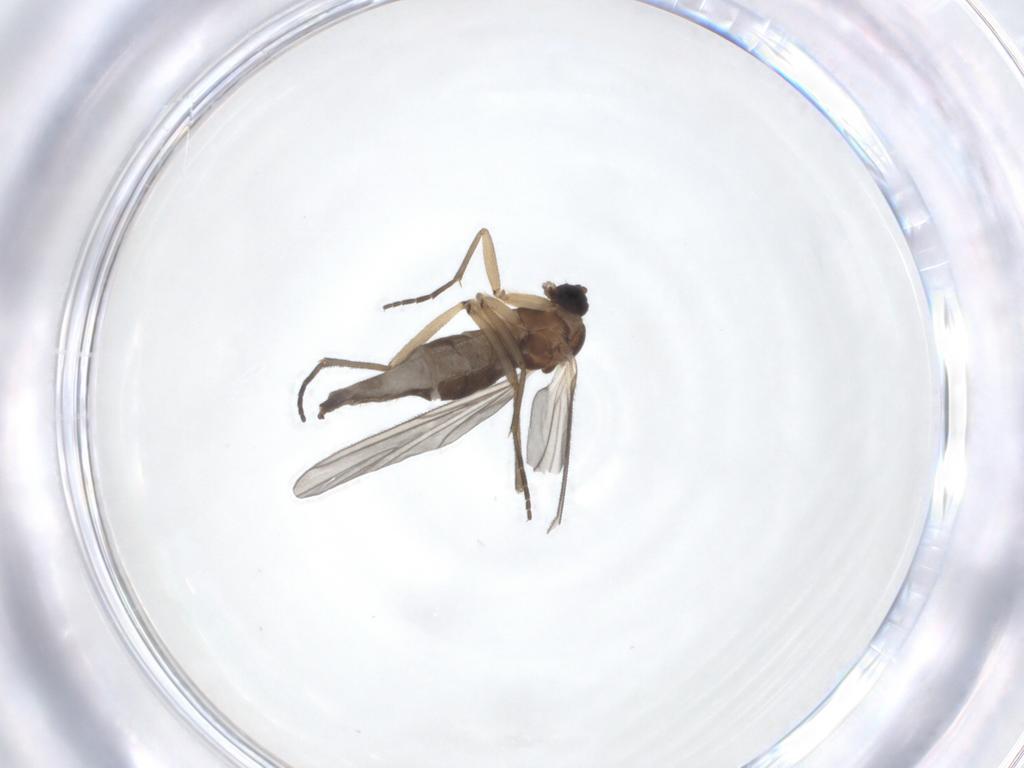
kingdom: Animalia
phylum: Arthropoda
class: Insecta
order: Diptera
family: Sciaridae
